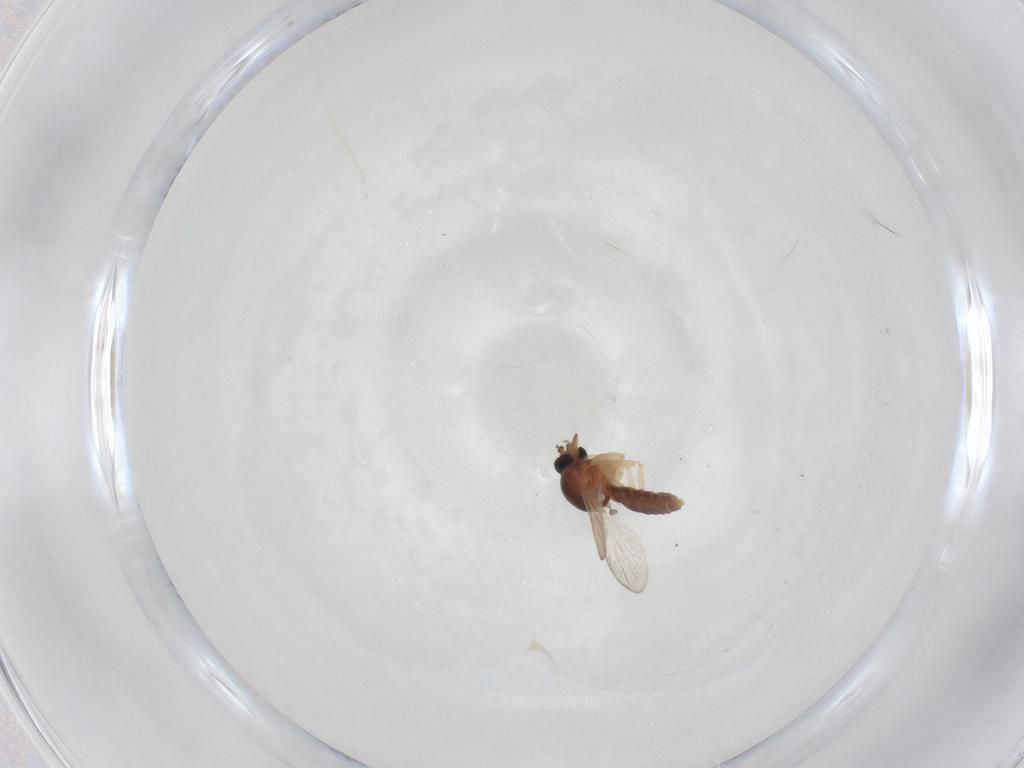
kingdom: Animalia
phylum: Arthropoda
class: Insecta
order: Diptera
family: Ceratopogonidae
